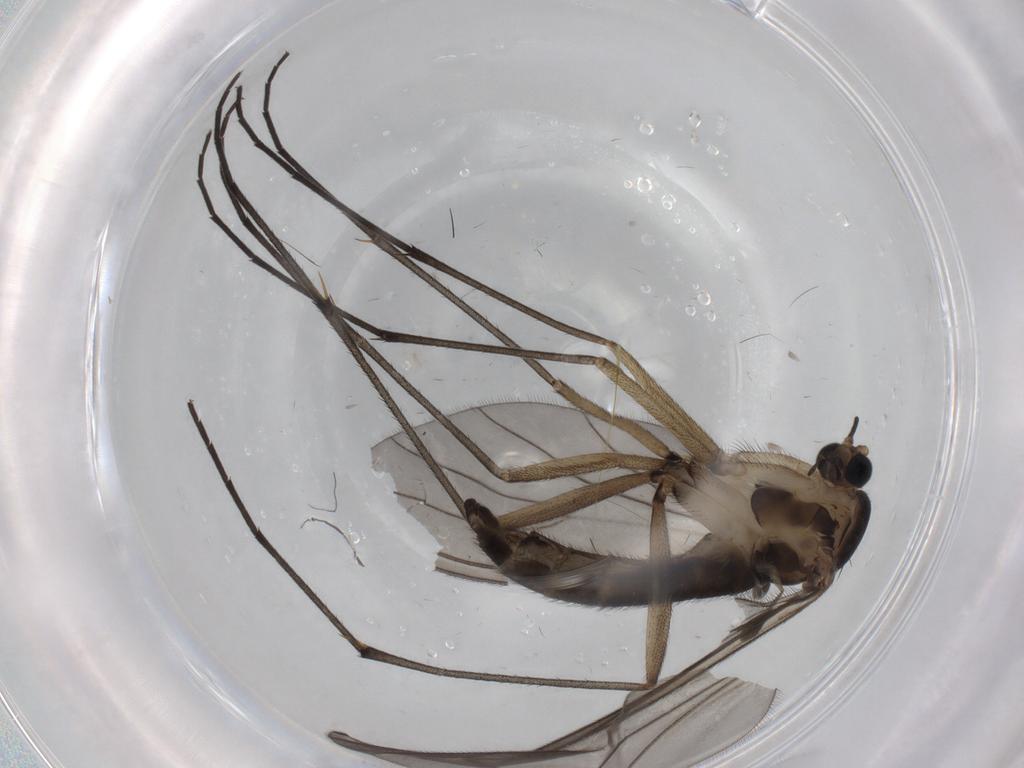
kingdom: Animalia
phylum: Arthropoda
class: Insecta
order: Diptera
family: Sciaridae
